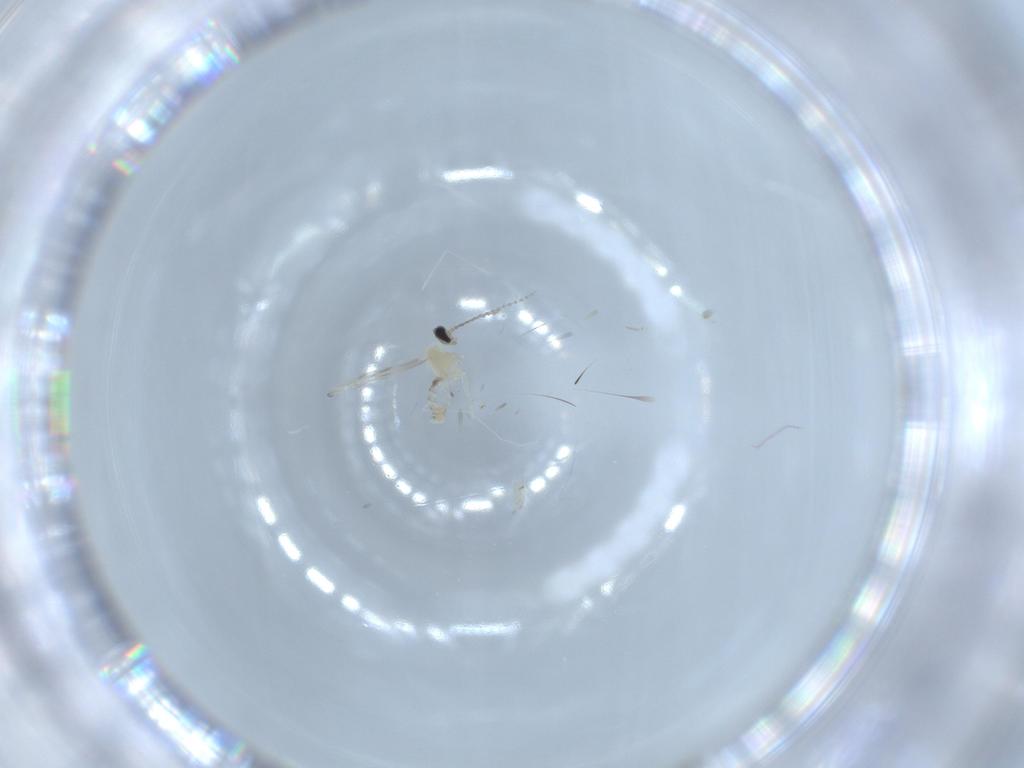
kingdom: Animalia
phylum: Arthropoda
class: Insecta
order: Diptera
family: Cecidomyiidae
